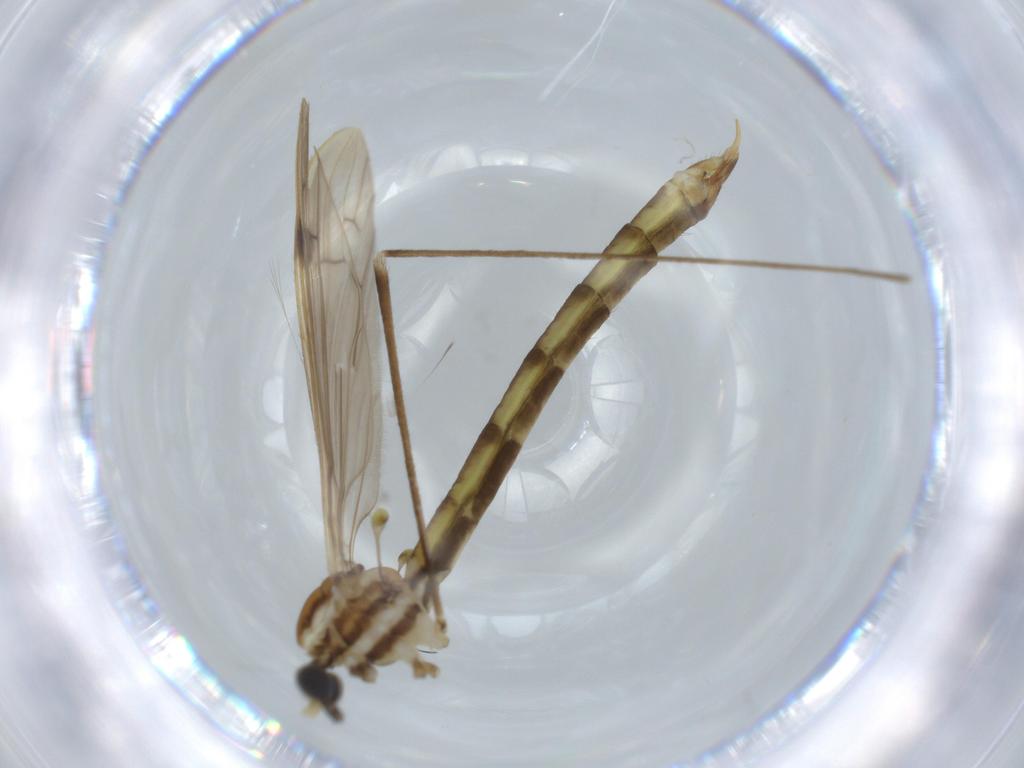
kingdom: Animalia
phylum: Arthropoda
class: Insecta
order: Diptera
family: Limoniidae
